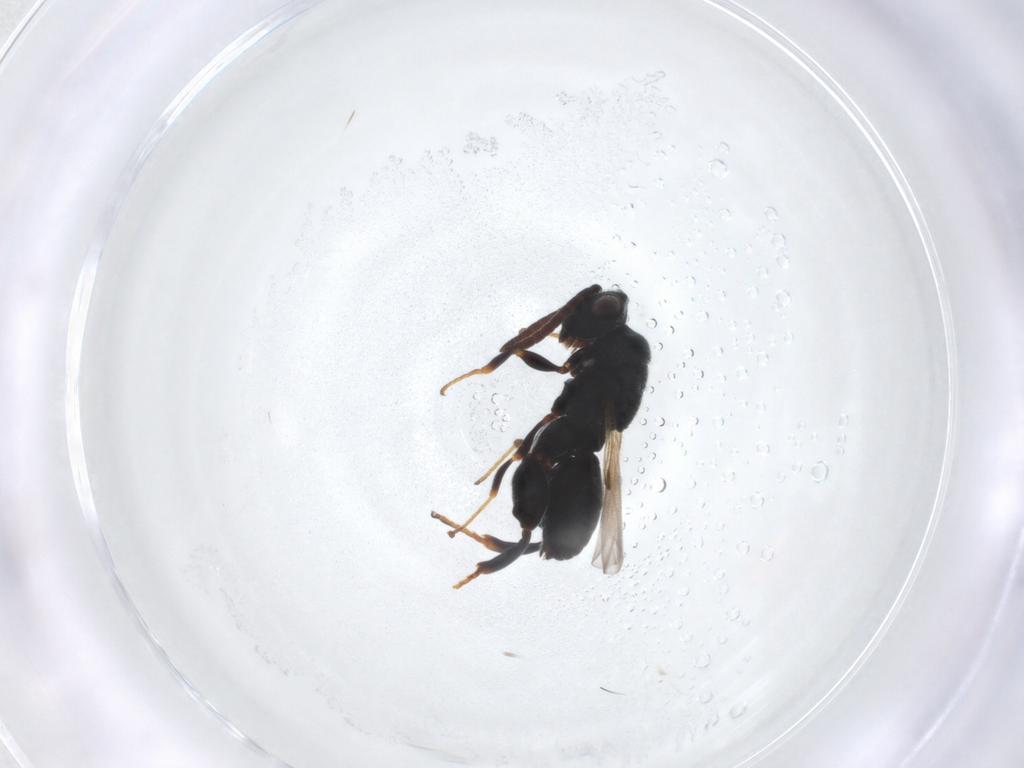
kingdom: Animalia
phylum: Arthropoda
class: Insecta
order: Hymenoptera
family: Chalcididae
